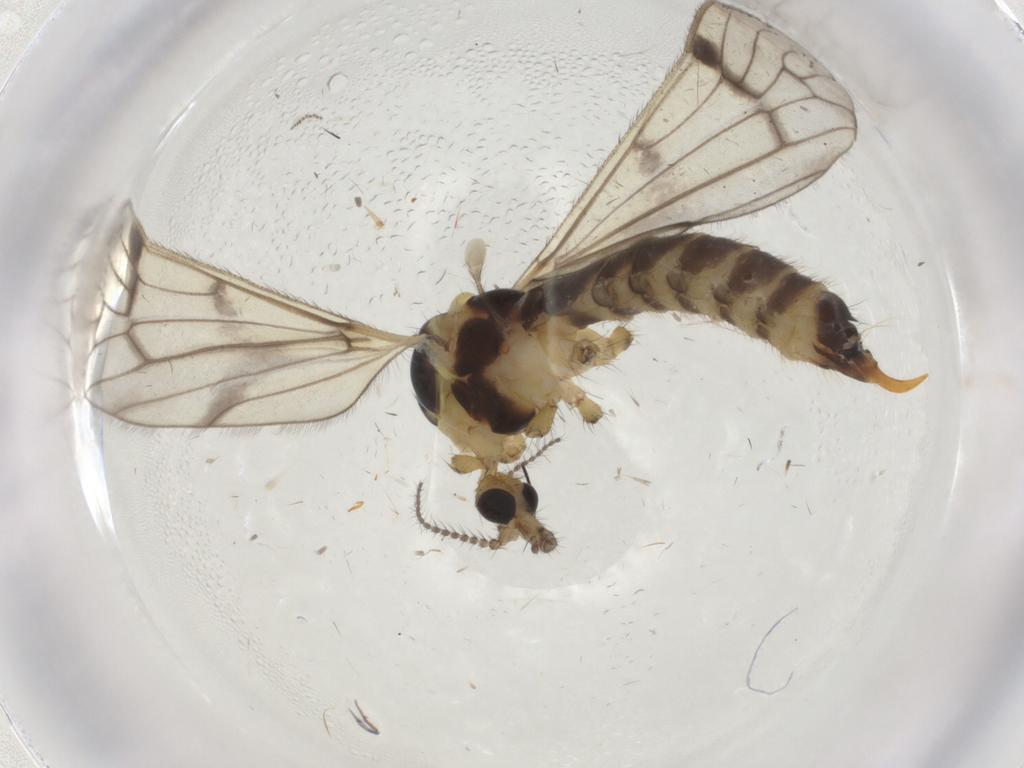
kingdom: Animalia
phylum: Arthropoda
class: Insecta
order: Diptera
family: Limoniidae
